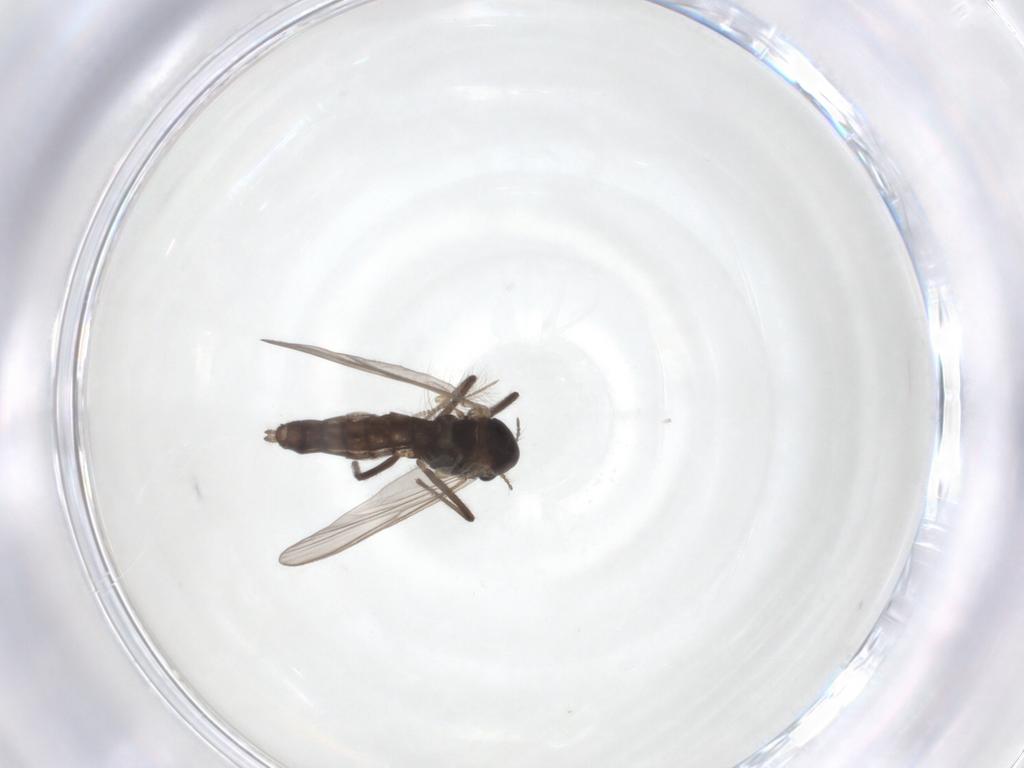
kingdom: Animalia
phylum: Arthropoda
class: Insecta
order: Diptera
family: Chironomidae
